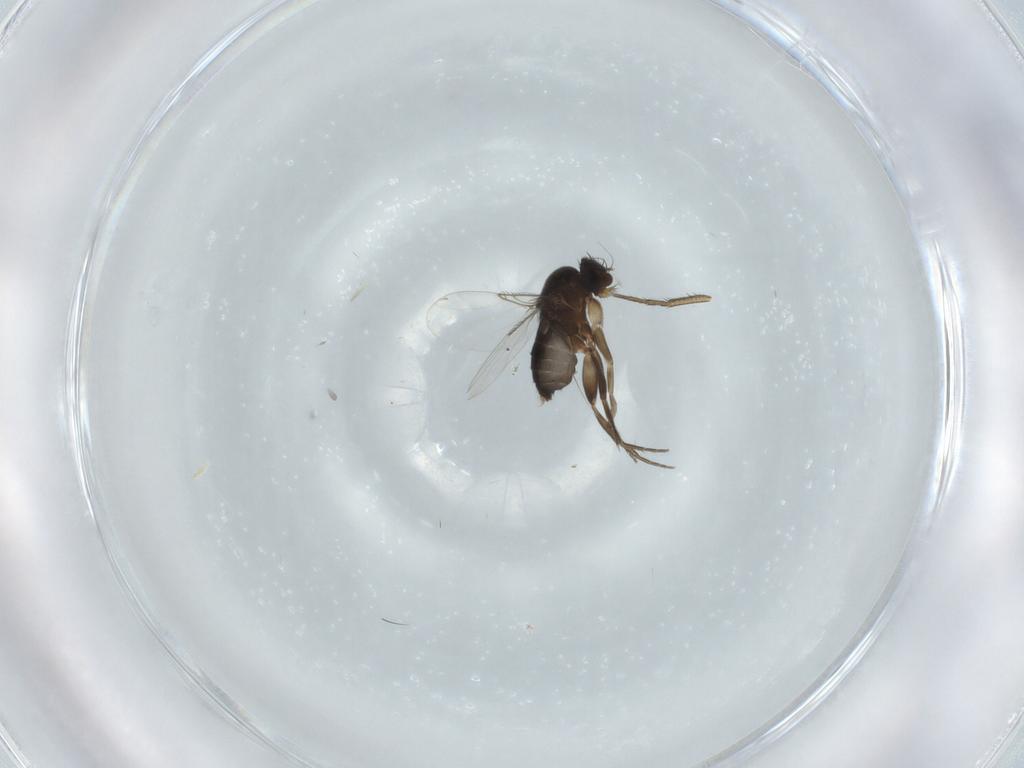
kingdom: Animalia
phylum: Arthropoda
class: Insecta
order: Diptera
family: Phoridae
